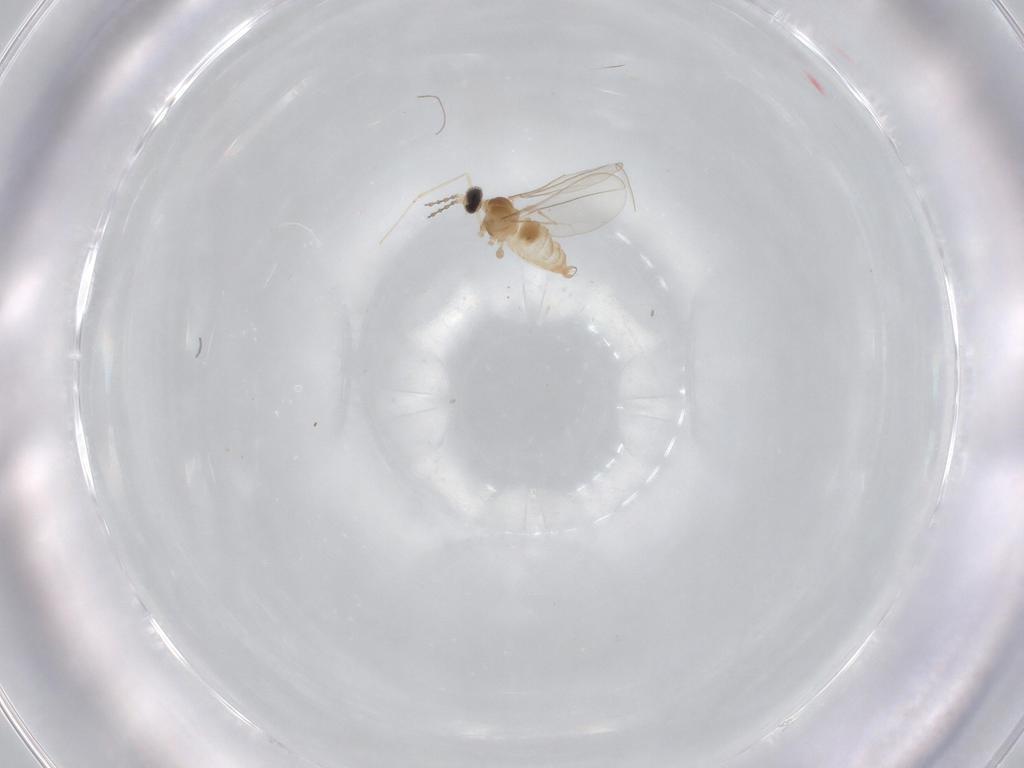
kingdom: Animalia
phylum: Arthropoda
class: Insecta
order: Diptera
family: Cecidomyiidae
